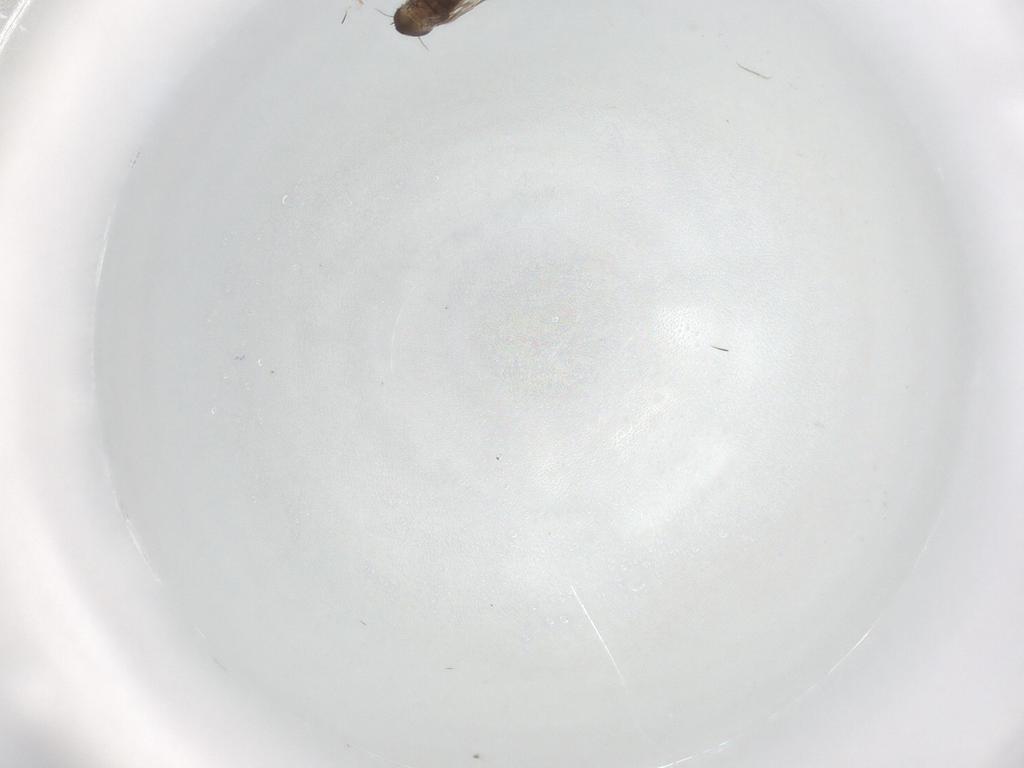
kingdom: Animalia
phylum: Arthropoda
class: Insecta
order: Diptera
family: Phoridae
